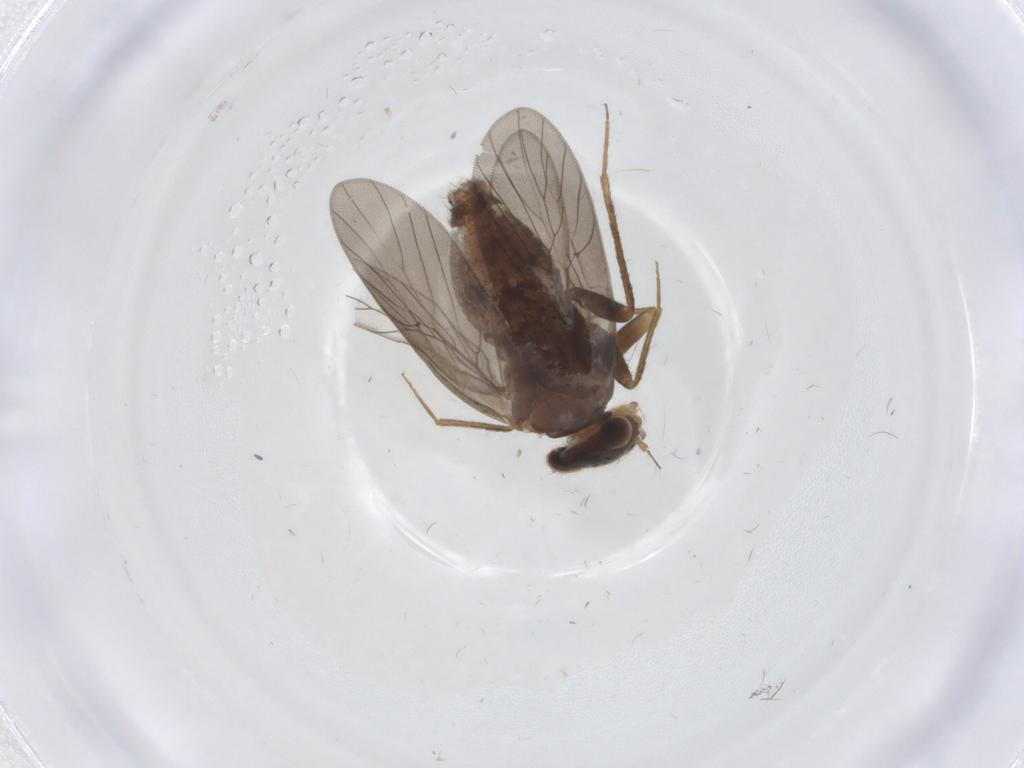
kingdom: Animalia
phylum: Arthropoda
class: Insecta
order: Psocodea
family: Lepidopsocidae
